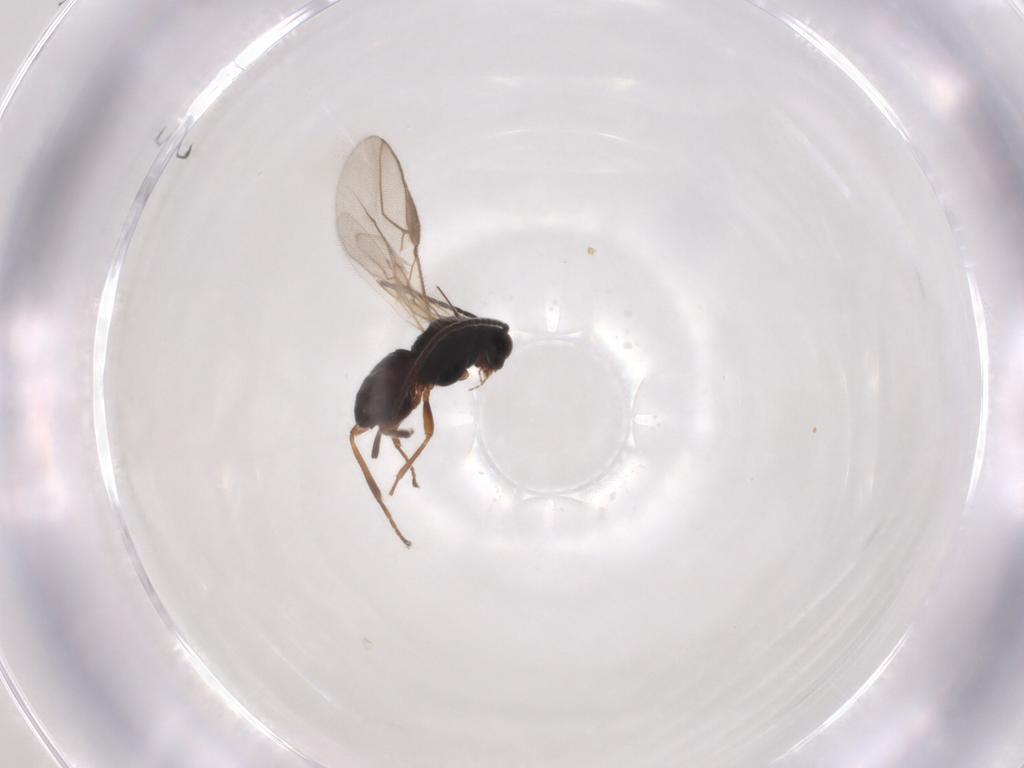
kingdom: Animalia
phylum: Arthropoda
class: Insecta
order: Hymenoptera
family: Braconidae
